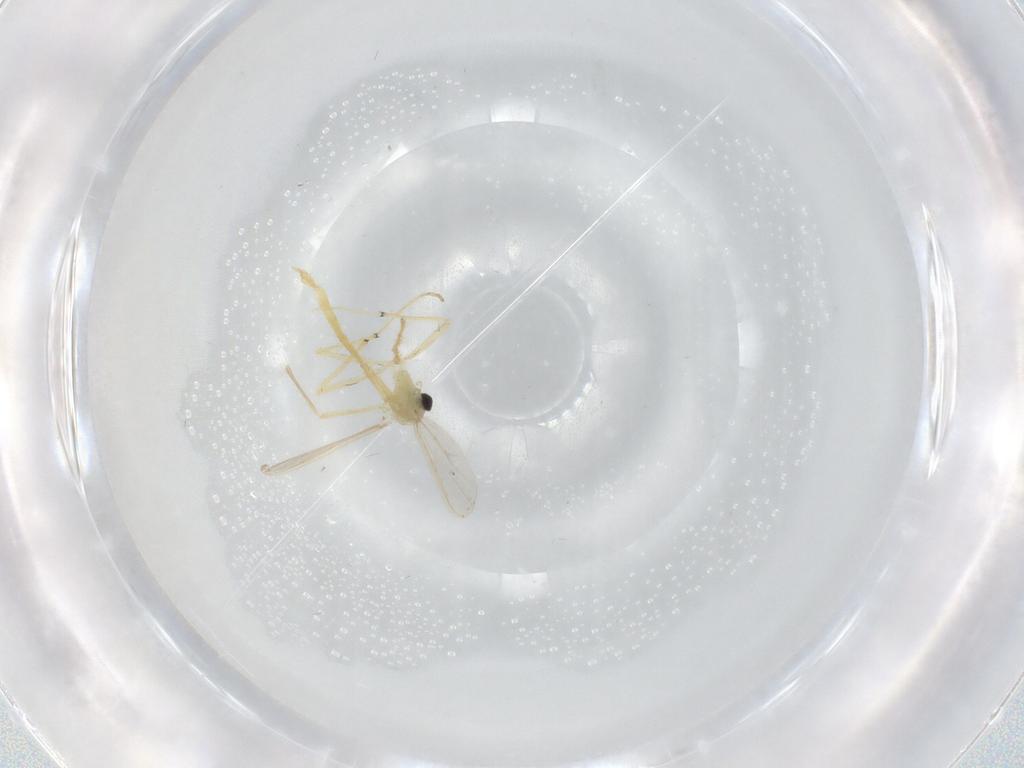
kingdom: Animalia
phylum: Arthropoda
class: Insecta
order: Diptera
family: Chironomidae
